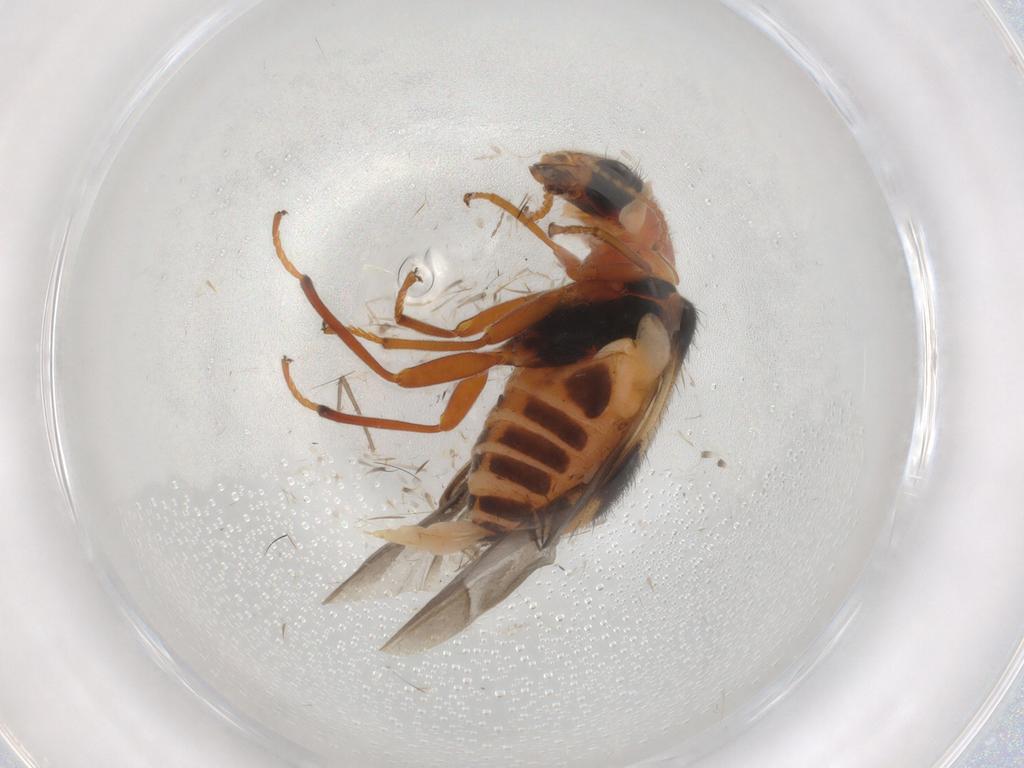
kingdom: Animalia
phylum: Arthropoda
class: Insecta
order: Coleoptera
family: Melyridae
